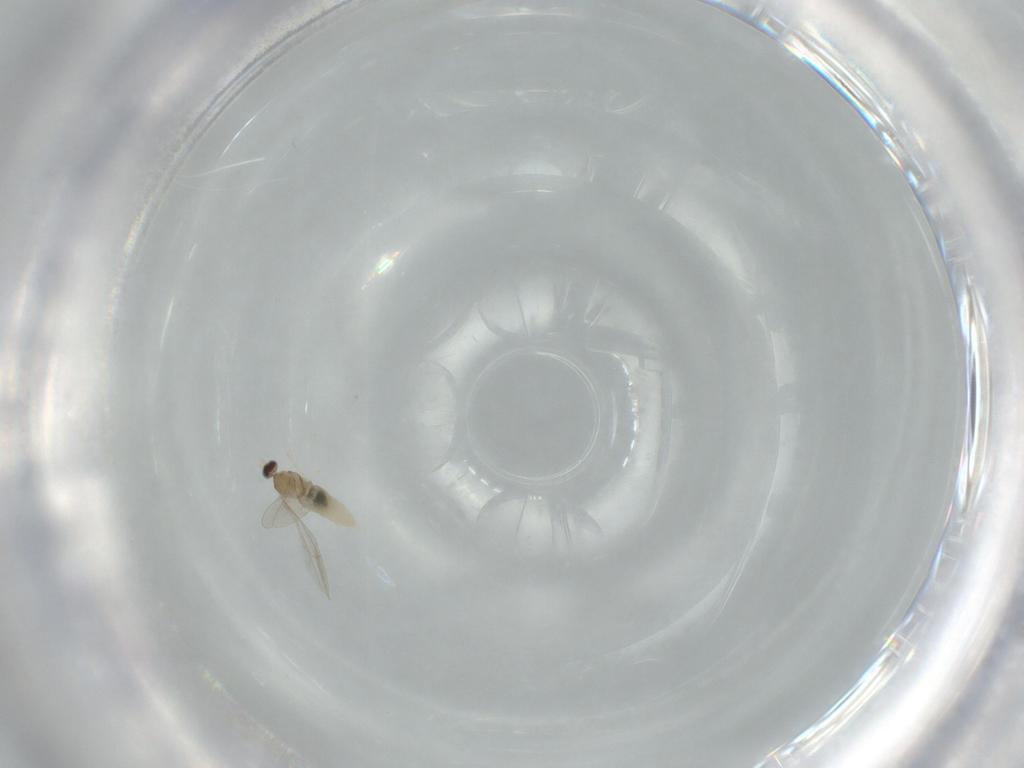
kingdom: Animalia
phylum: Arthropoda
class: Insecta
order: Diptera
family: Cecidomyiidae
